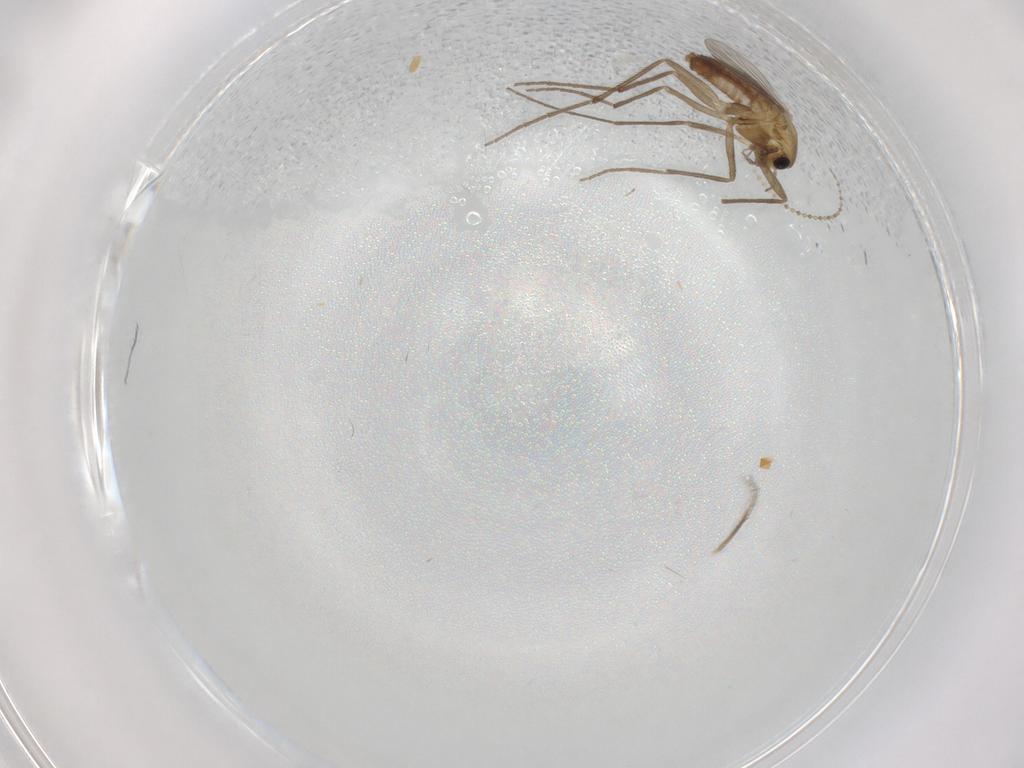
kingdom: Animalia
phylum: Arthropoda
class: Insecta
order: Diptera
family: Chironomidae
